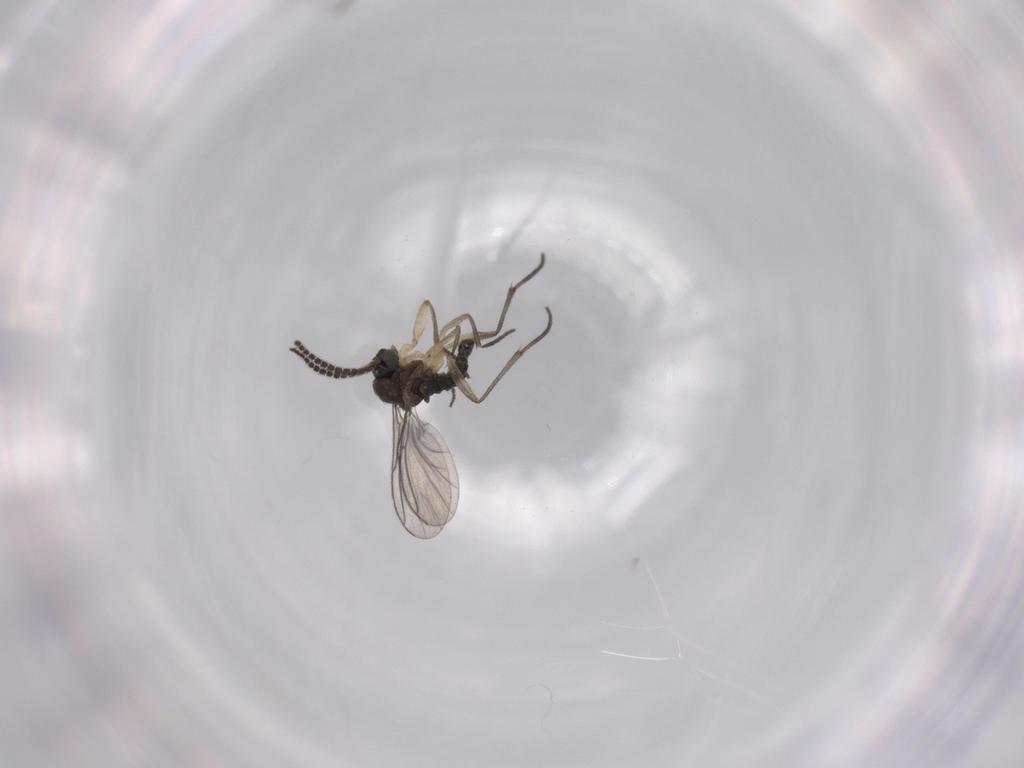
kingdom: Animalia
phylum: Arthropoda
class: Insecta
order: Diptera
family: Sciaridae
